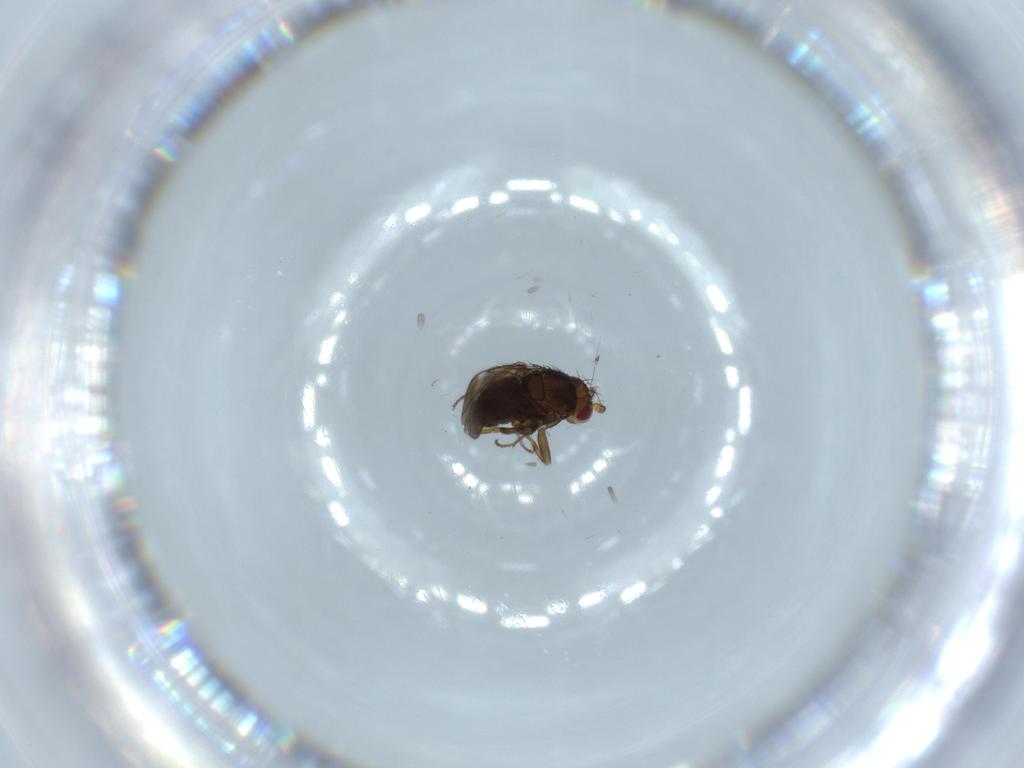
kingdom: Animalia
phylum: Arthropoda
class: Insecta
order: Diptera
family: Sphaeroceridae
